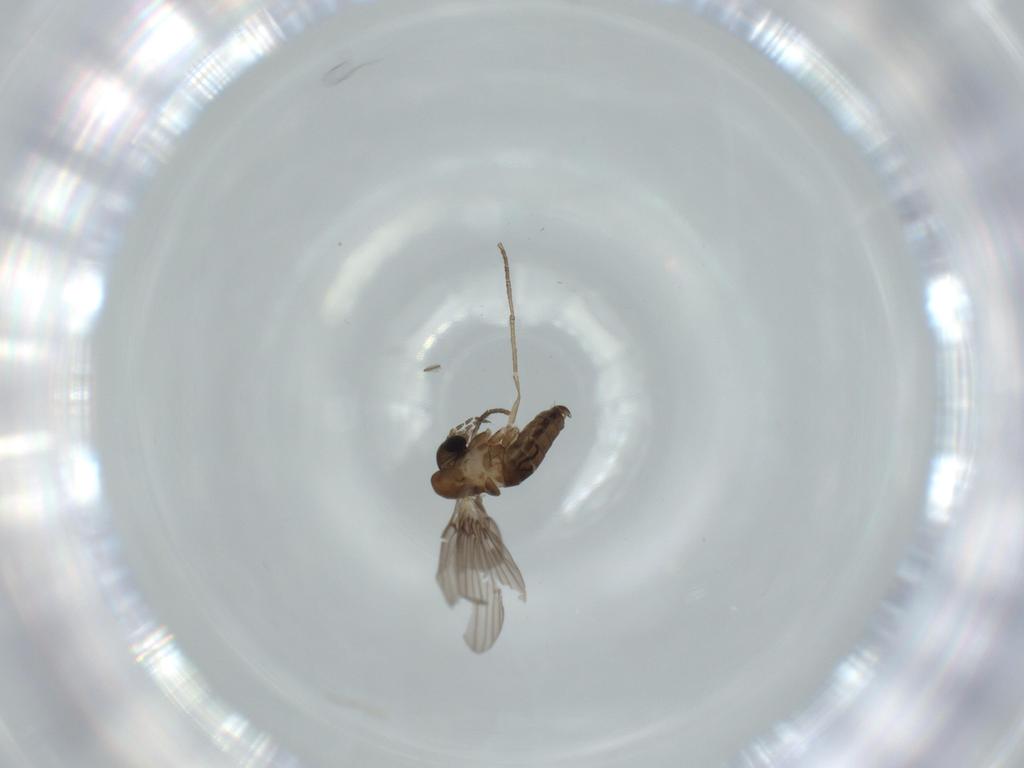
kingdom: Animalia
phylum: Arthropoda
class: Insecta
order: Diptera
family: Psychodidae
